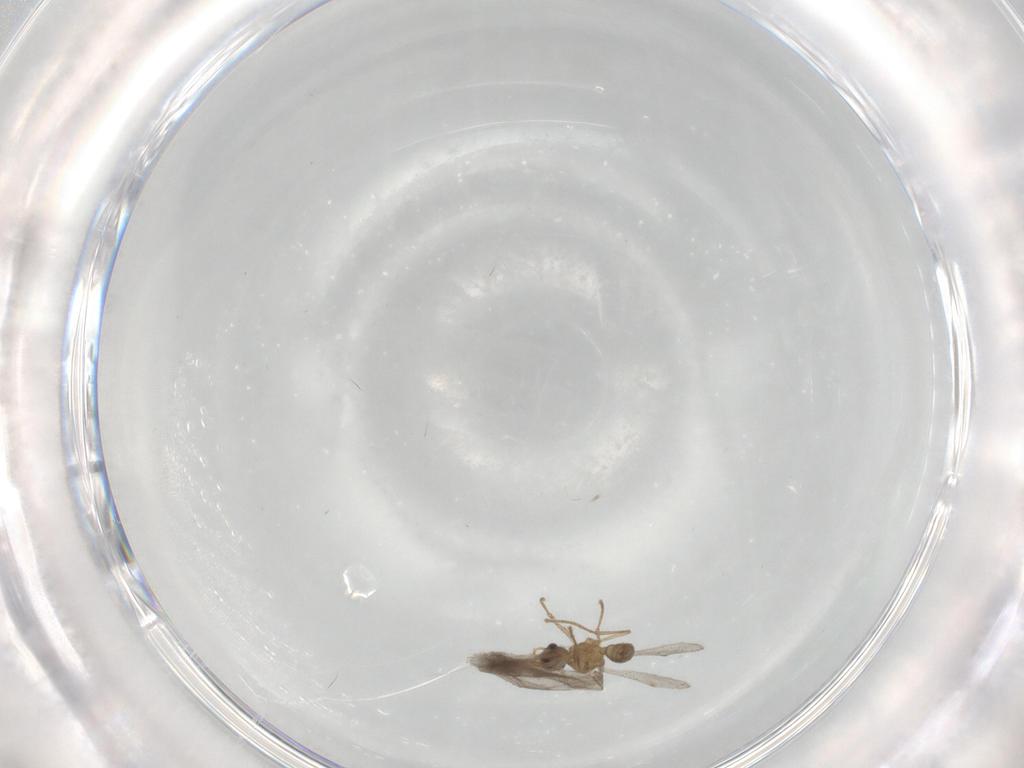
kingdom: Animalia
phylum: Arthropoda
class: Insecta
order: Hymenoptera
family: Formicidae
